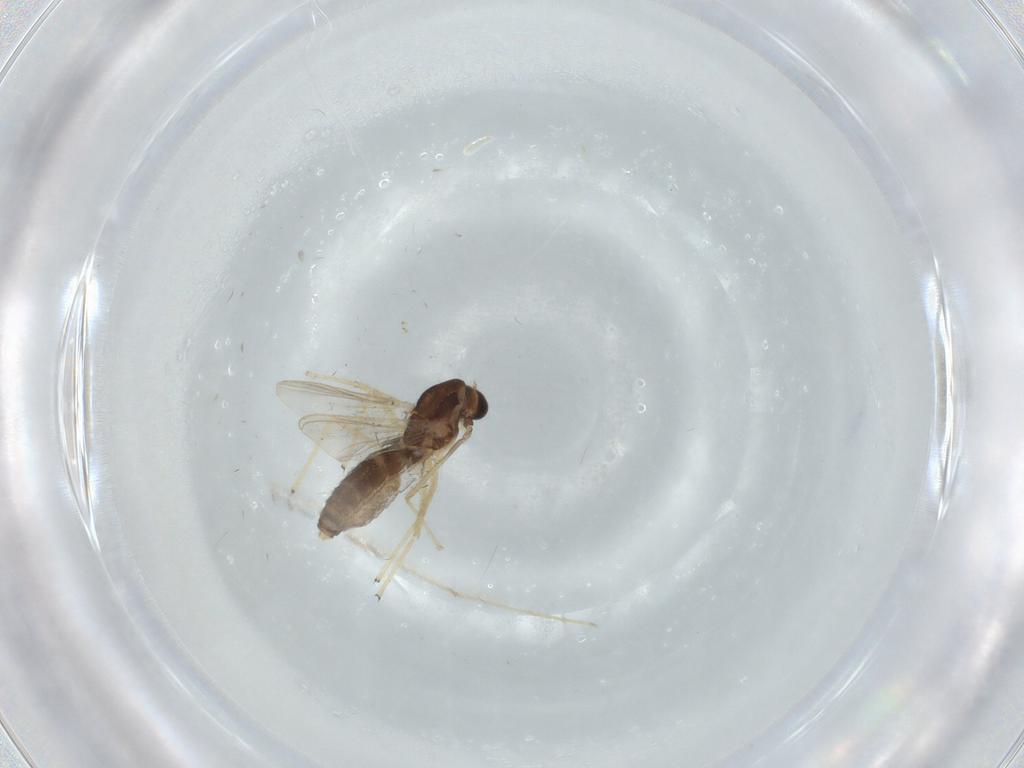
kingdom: Animalia
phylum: Arthropoda
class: Insecta
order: Diptera
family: Chironomidae
